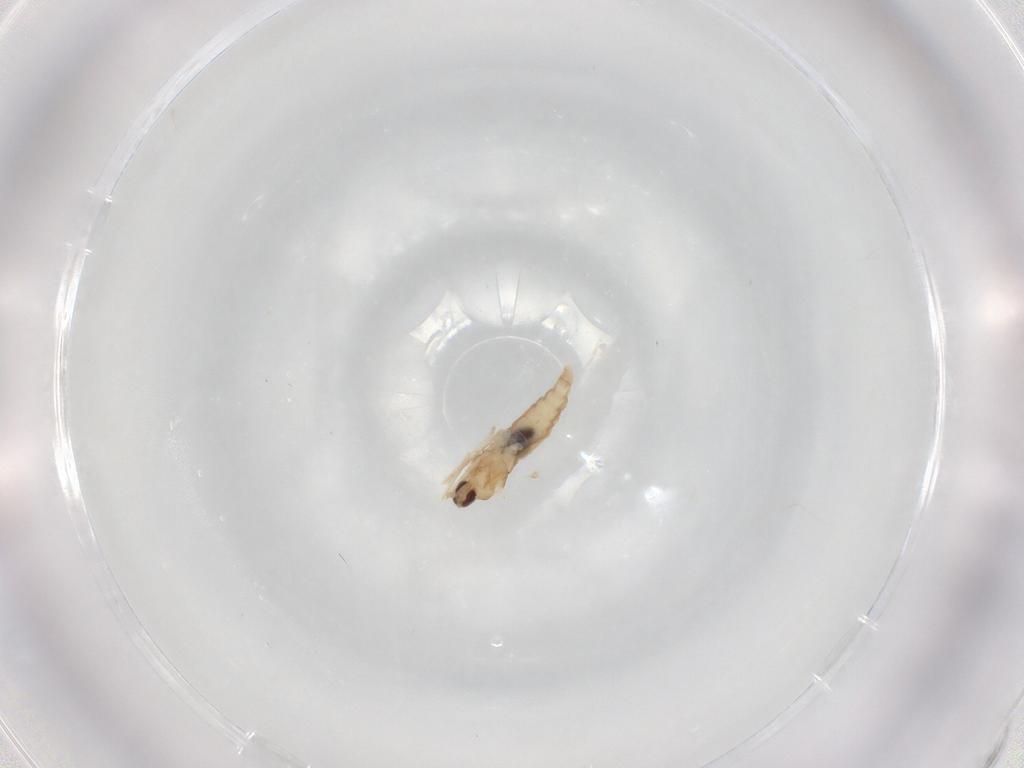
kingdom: Animalia
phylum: Arthropoda
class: Insecta
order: Diptera
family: Cecidomyiidae
